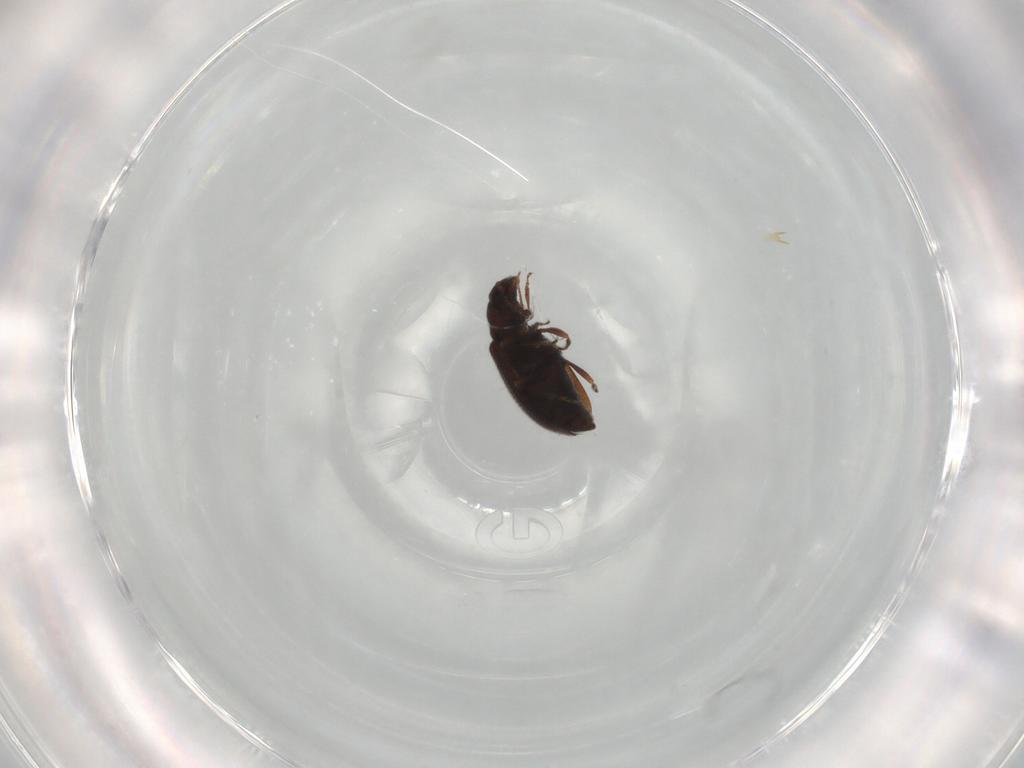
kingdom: Animalia
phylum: Arthropoda
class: Insecta
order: Coleoptera
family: Latridiidae
